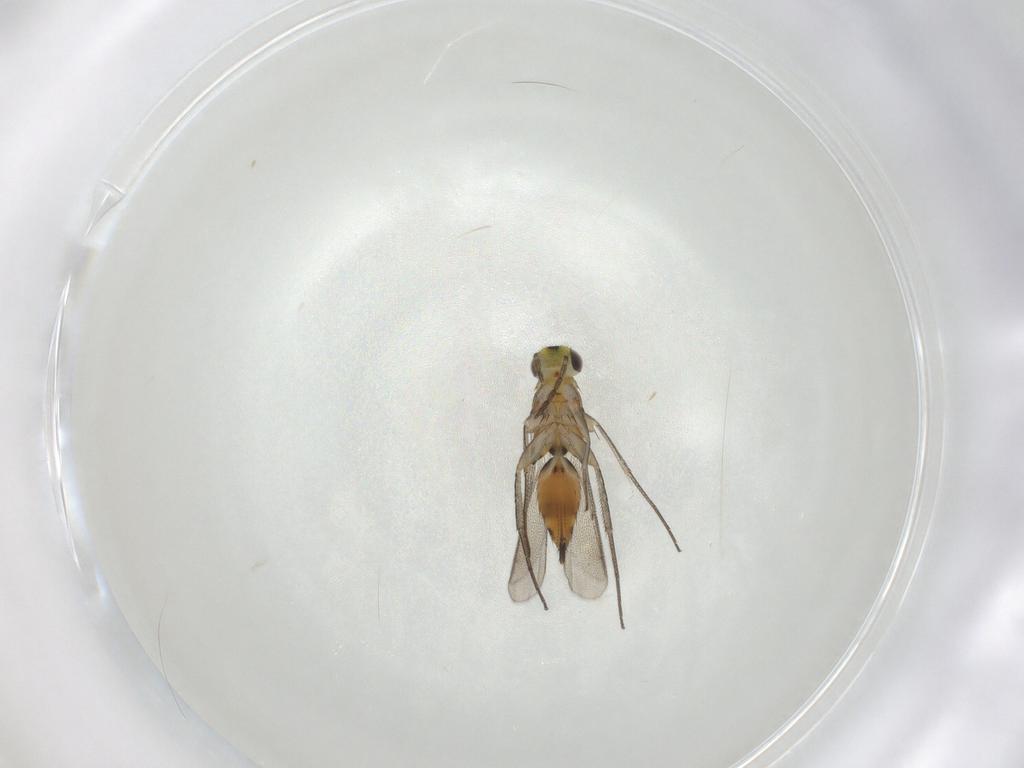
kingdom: Animalia
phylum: Arthropoda
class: Insecta
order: Hymenoptera
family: Eulophidae
